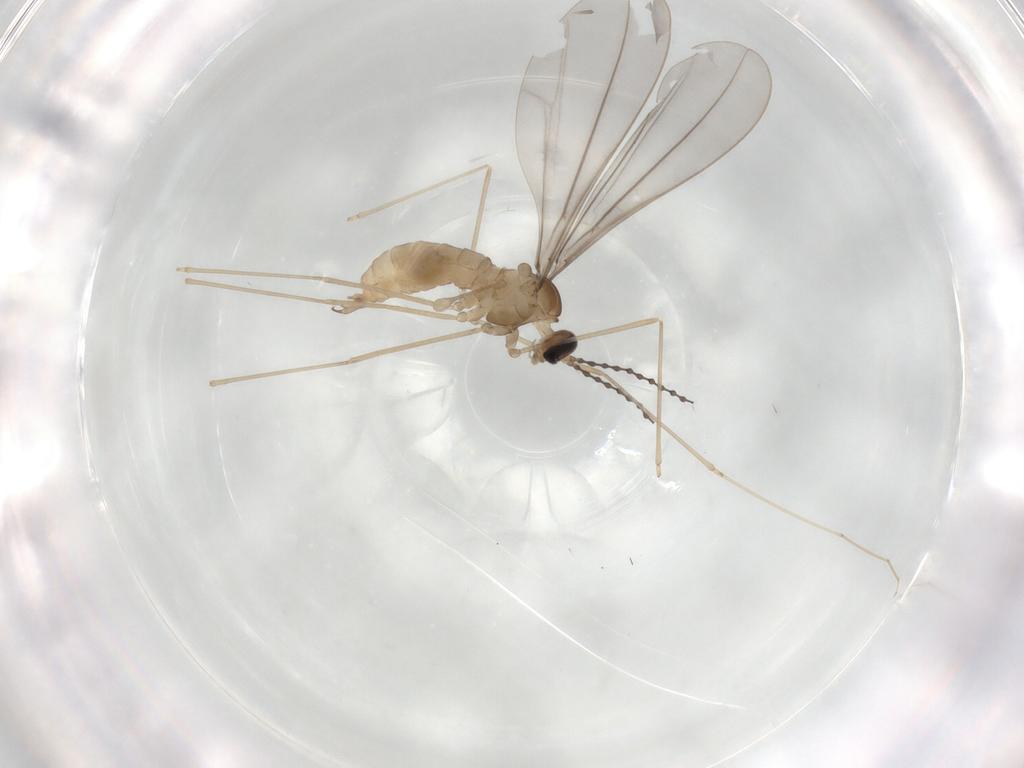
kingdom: Animalia
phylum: Arthropoda
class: Insecta
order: Diptera
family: Cecidomyiidae
